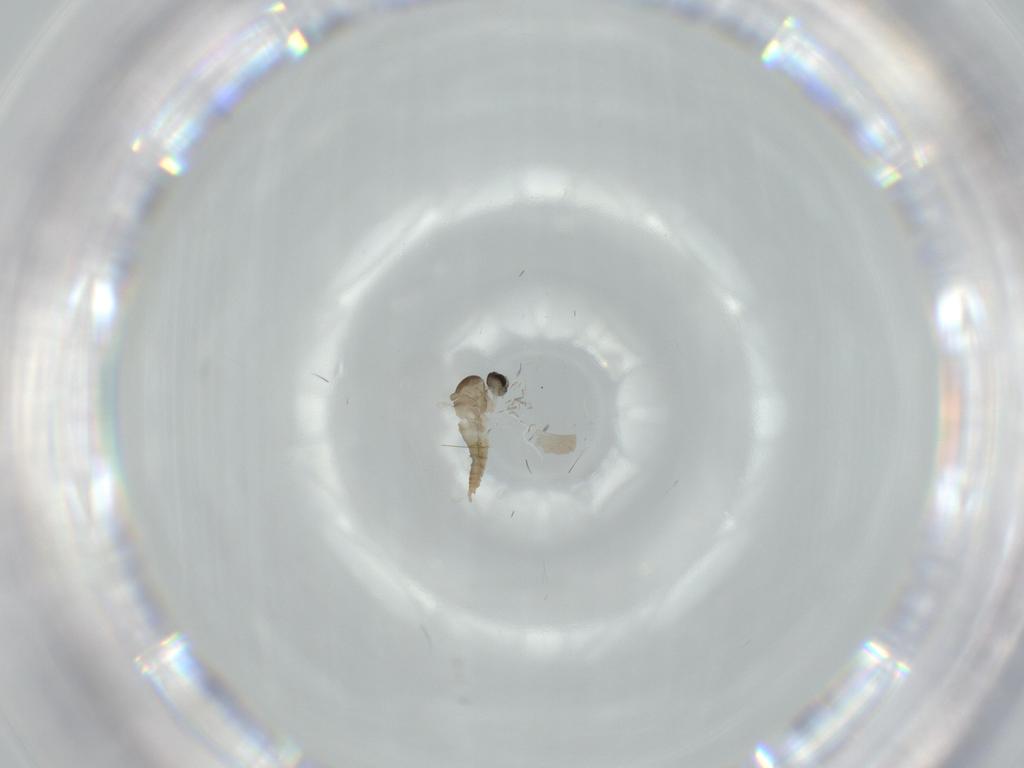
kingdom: Animalia
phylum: Arthropoda
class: Insecta
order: Diptera
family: Cecidomyiidae
